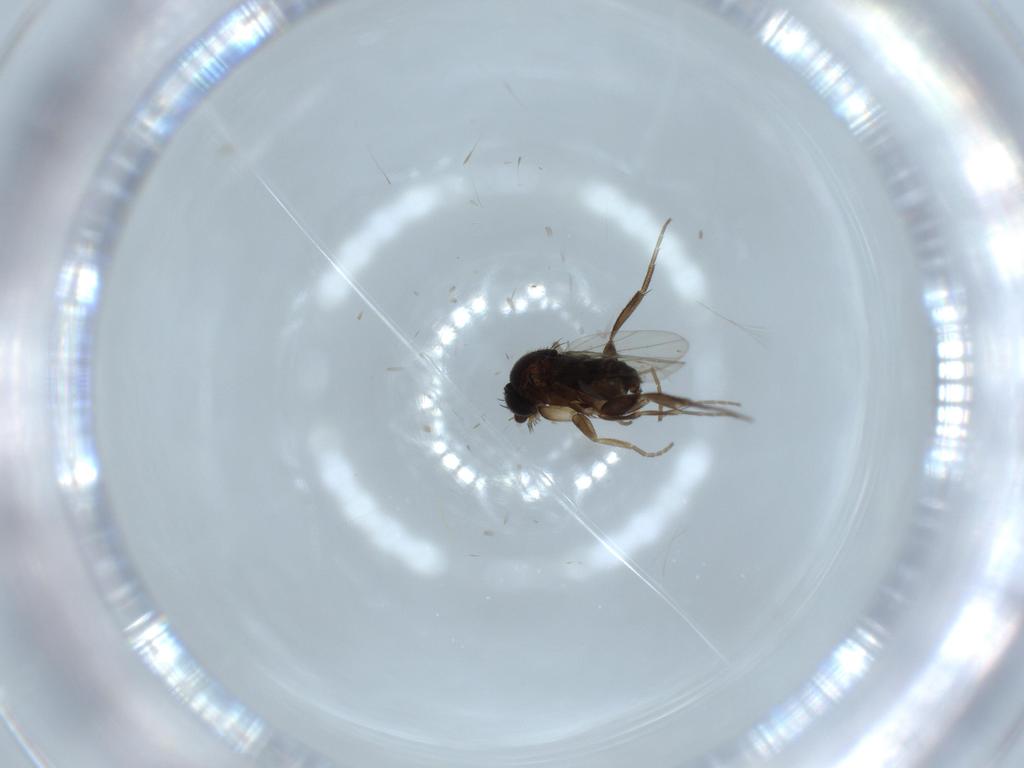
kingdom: Animalia
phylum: Arthropoda
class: Insecta
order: Diptera
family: Phoridae
